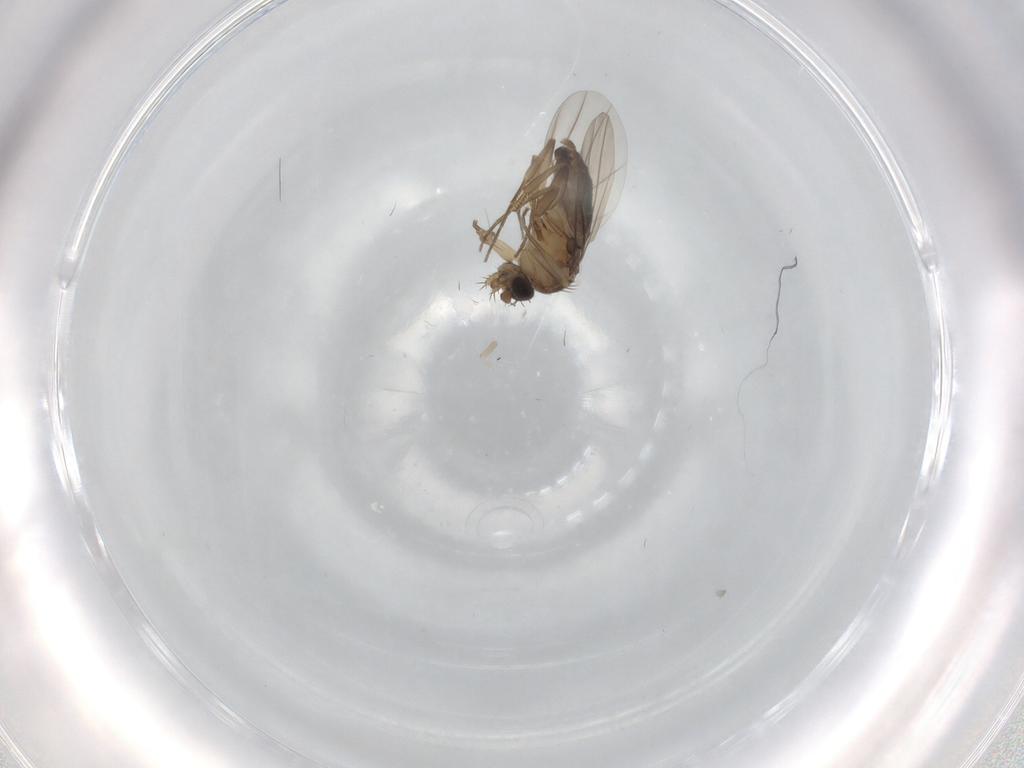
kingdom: Animalia
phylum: Arthropoda
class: Insecta
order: Diptera
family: Phoridae
